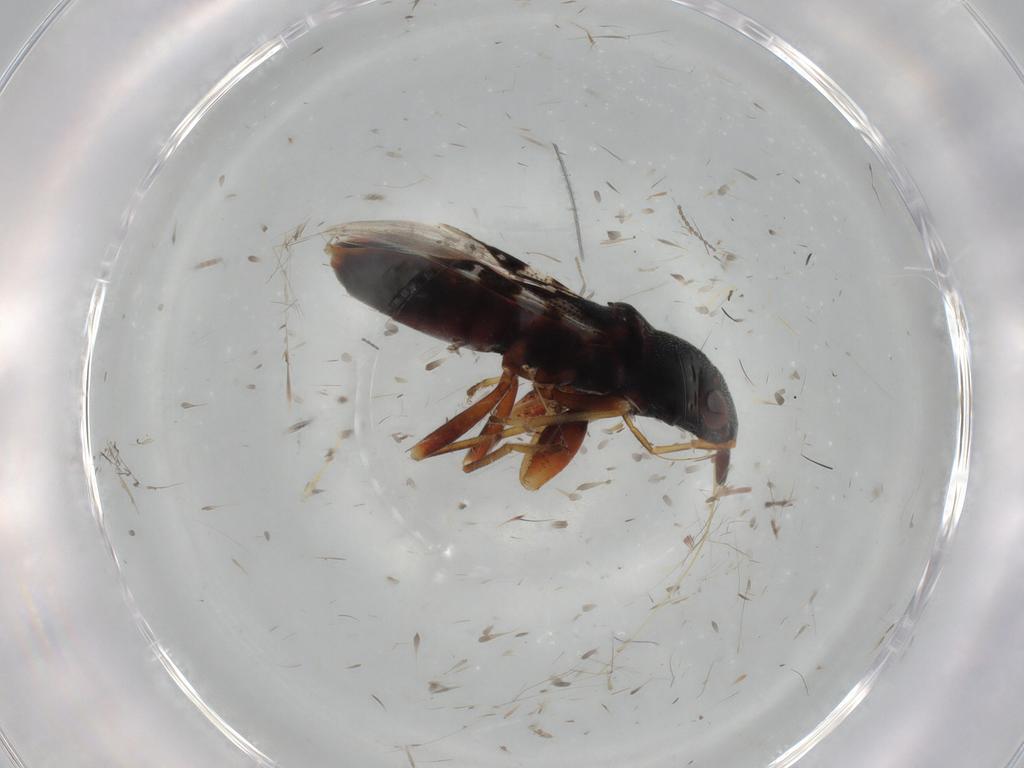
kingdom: Animalia
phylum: Arthropoda
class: Insecta
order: Hemiptera
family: Rhyparochromidae
